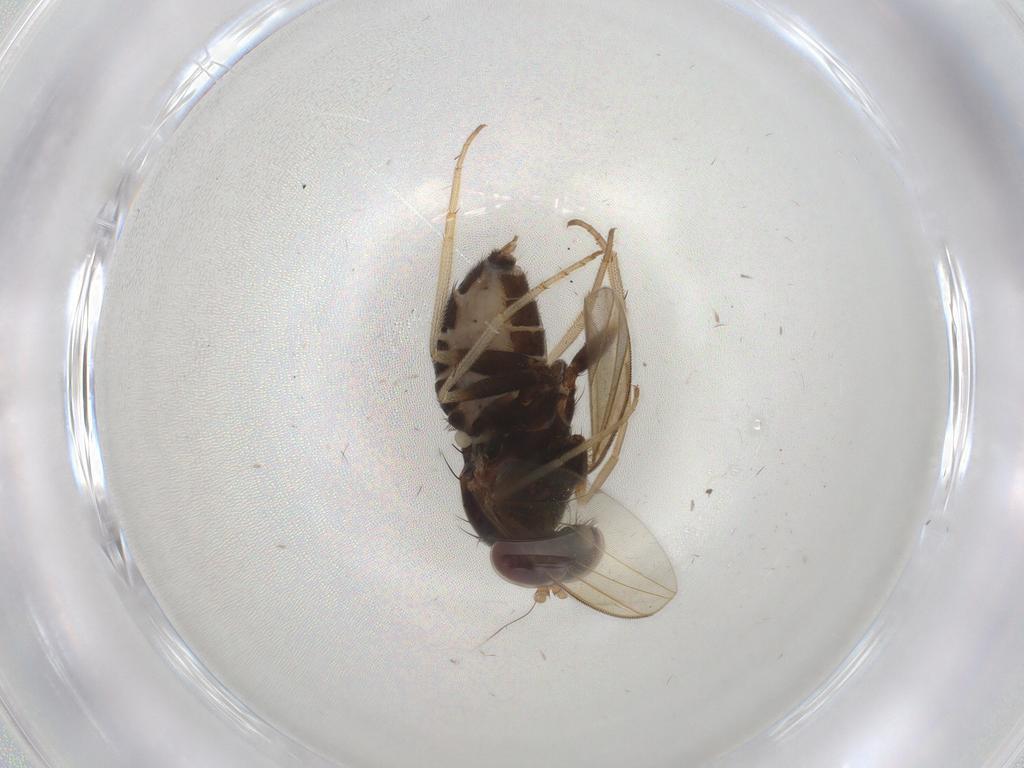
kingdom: Animalia
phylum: Arthropoda
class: Insecta
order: Diptera
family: Dolichopodidae
